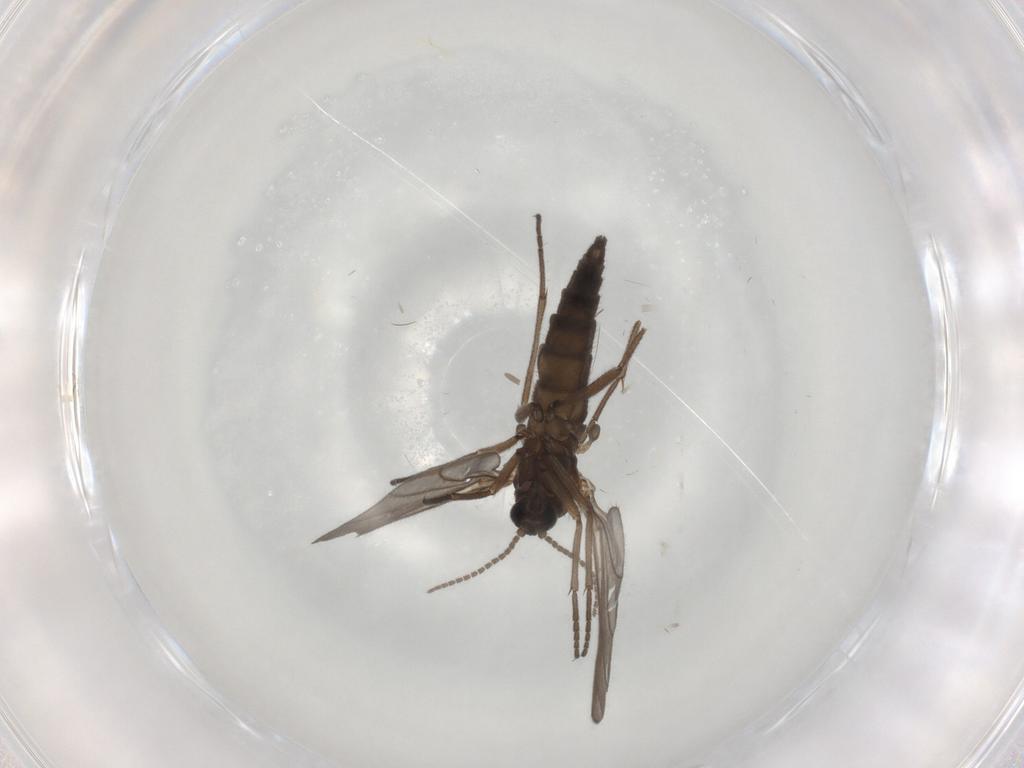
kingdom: Animalia
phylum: Arthropoda
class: Insecta
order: Diptera
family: Sciaridae
